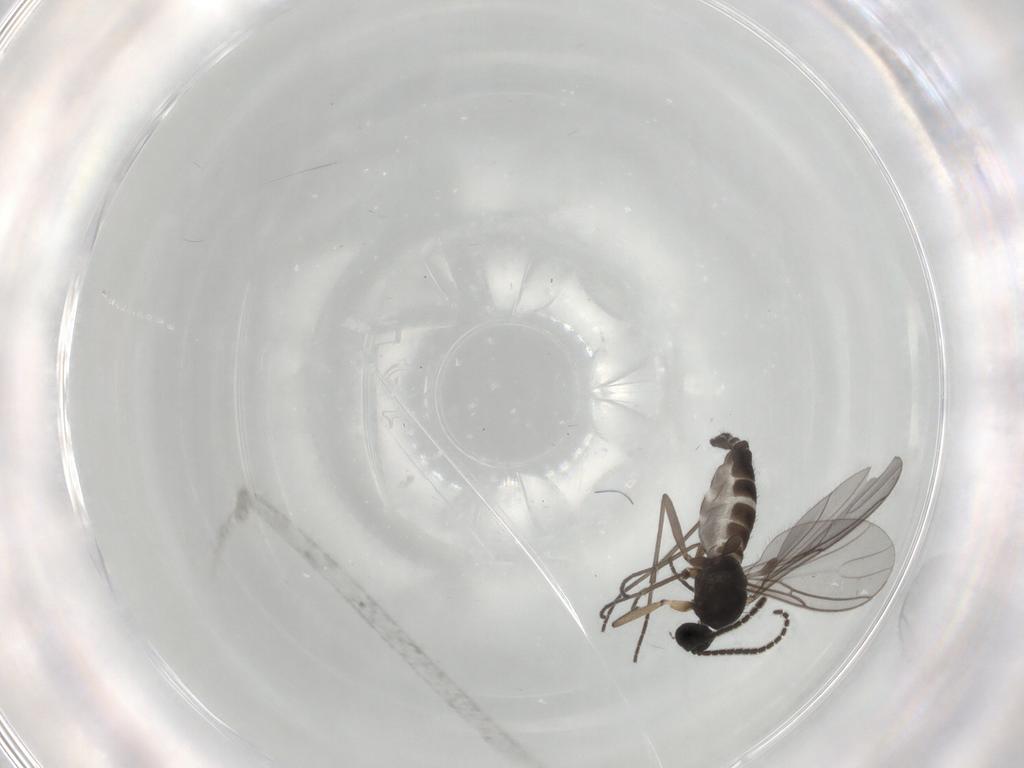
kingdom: Animalia
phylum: Arthropoda
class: Insecta
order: Diptera
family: Sciaridae
